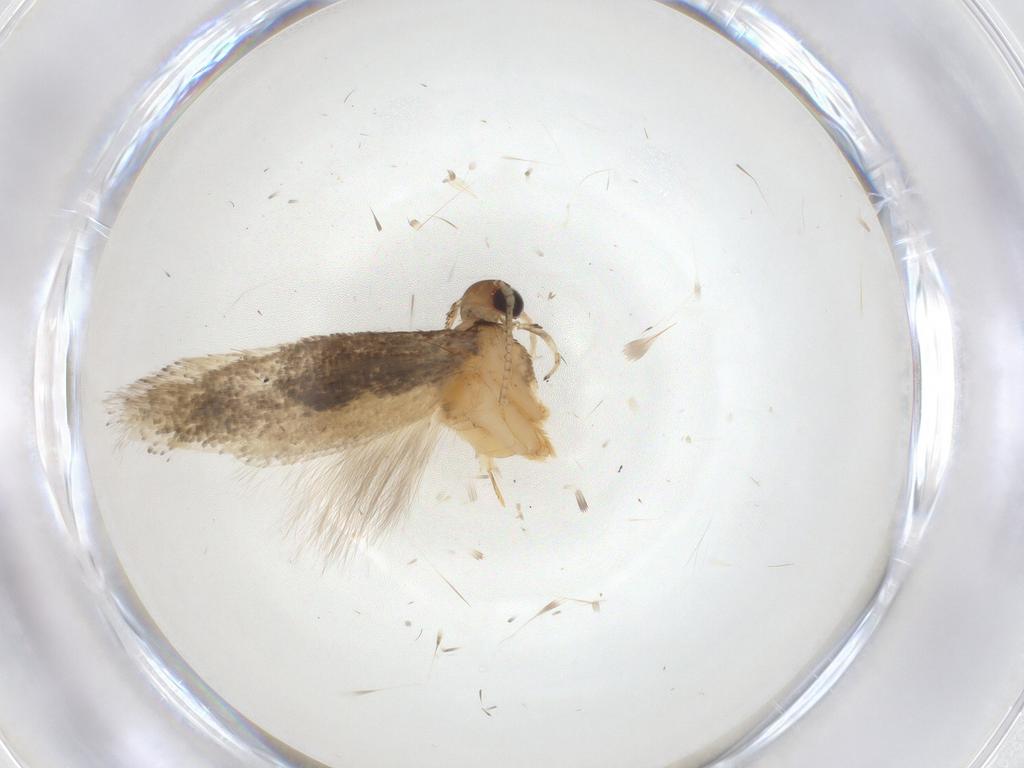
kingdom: Animalia
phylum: Arthropoda
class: Insecta
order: Lepidoptera
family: Gelechiidae
